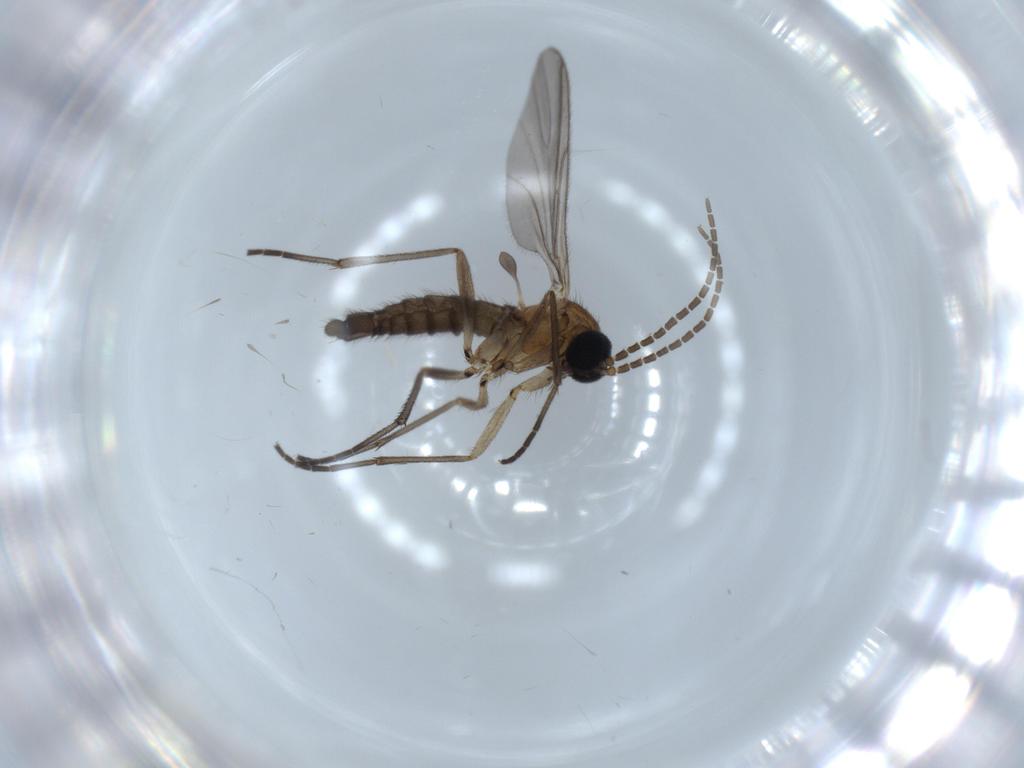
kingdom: Animalia
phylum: Arthropoda
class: Insecta
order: Diptera
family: Sciaridae
